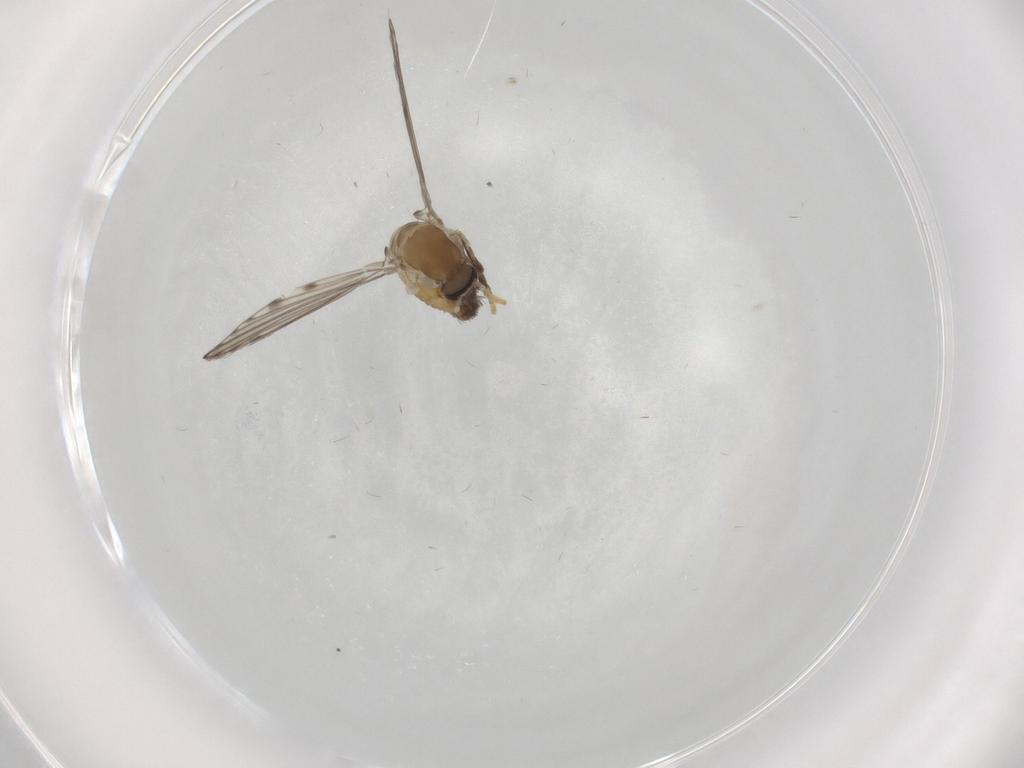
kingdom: Animalia
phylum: Arthropoda
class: Insecta
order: Diptera
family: Psychodidae
